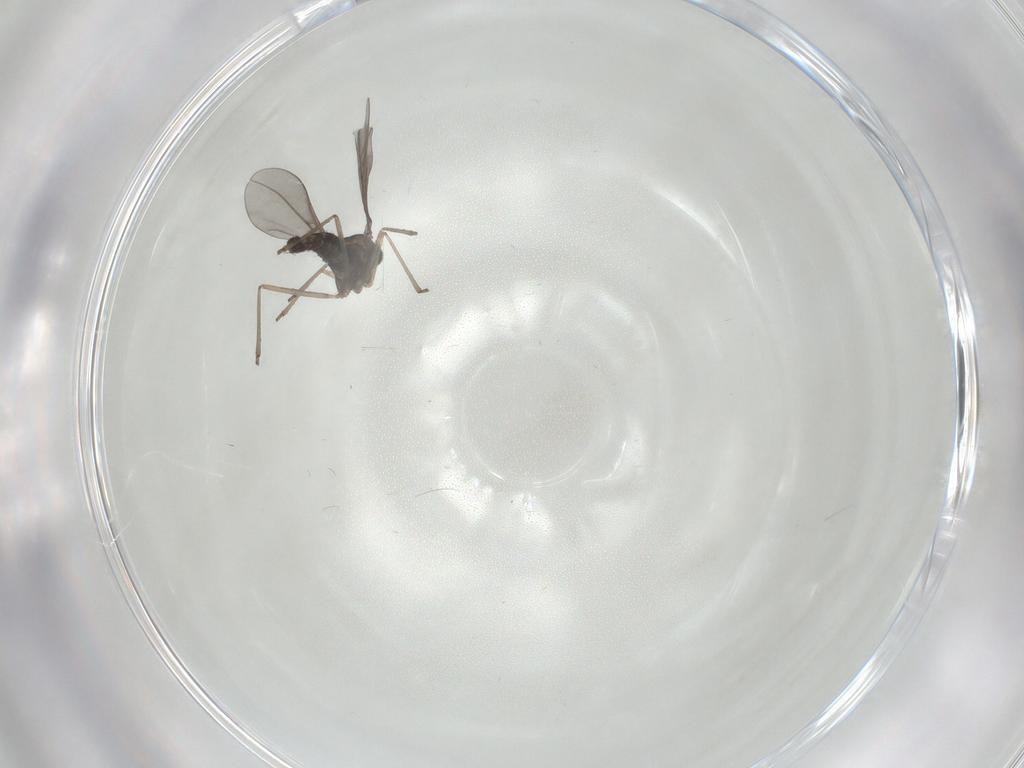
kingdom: Animalia
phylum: Arthropoda
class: Insecta
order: Diptera
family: Cecidomyiidae
